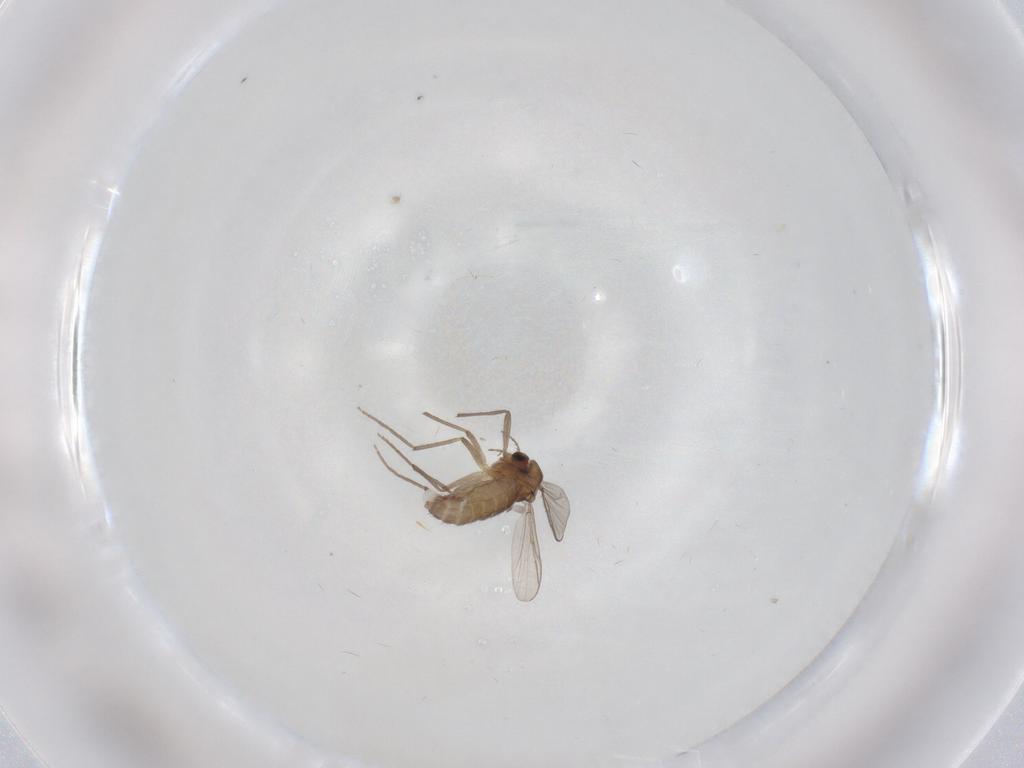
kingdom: Animalia
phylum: Arthropoda
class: Insecta
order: Diptera
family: Chironomidae
